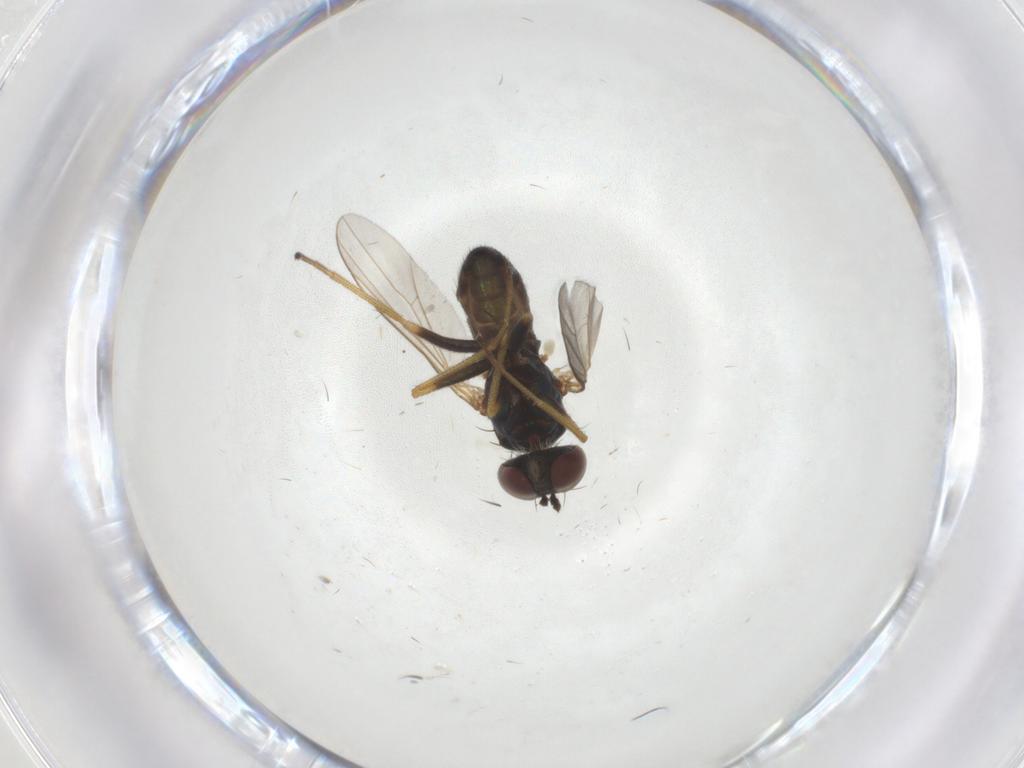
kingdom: Animalia
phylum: Arthropoda
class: Insecta
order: Diptera
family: Dolichopodidae
